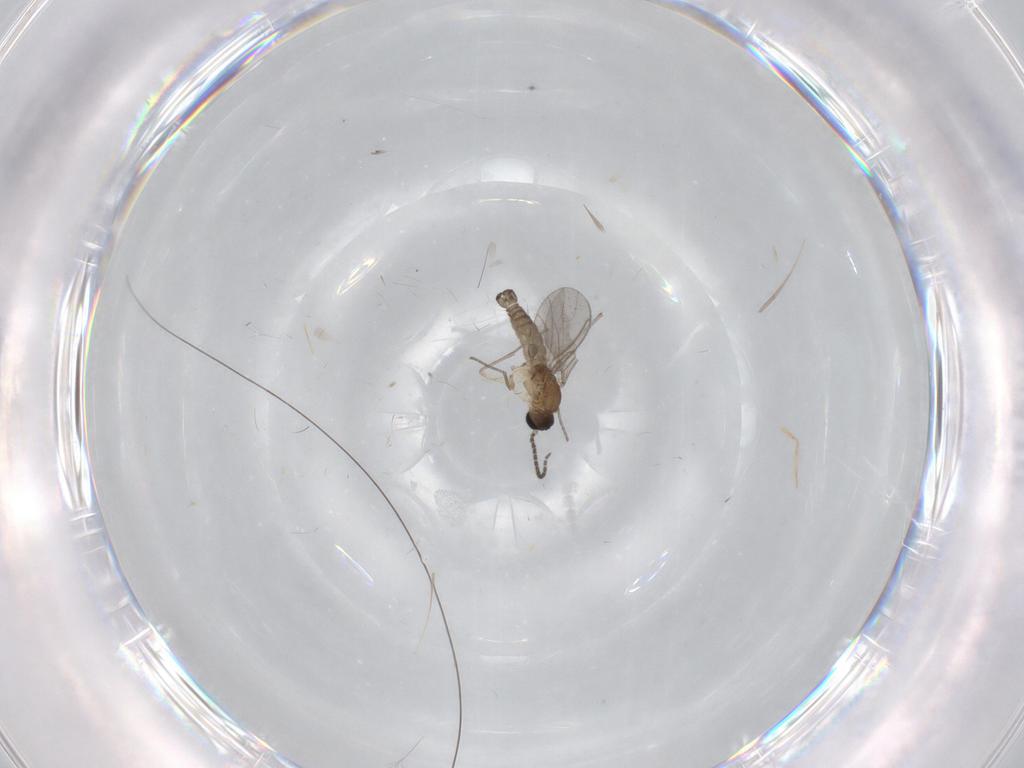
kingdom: Animalia
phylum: Arthropoda
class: Insecta
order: Diptera
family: Limoniidae
